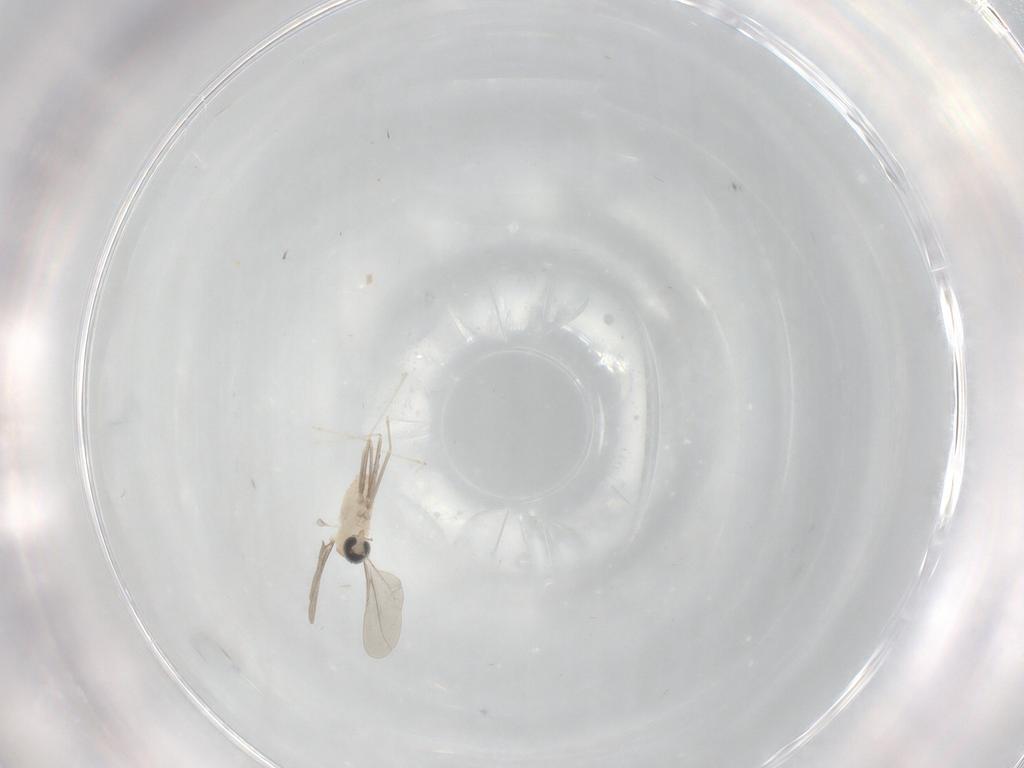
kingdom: Animalia
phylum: Arthropoda
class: Insecta
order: Diptera
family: Cecidomyiidae
